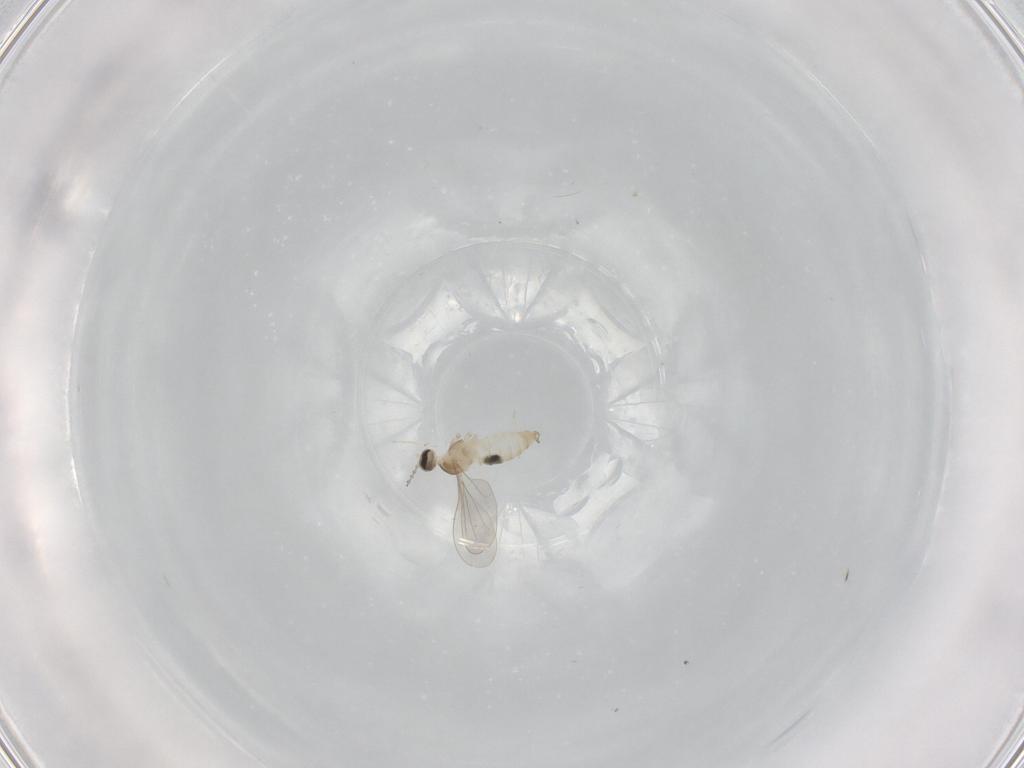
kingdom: Animalia
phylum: Arthropoda
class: Insecta
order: Diptera
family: Cecidomyiidae
